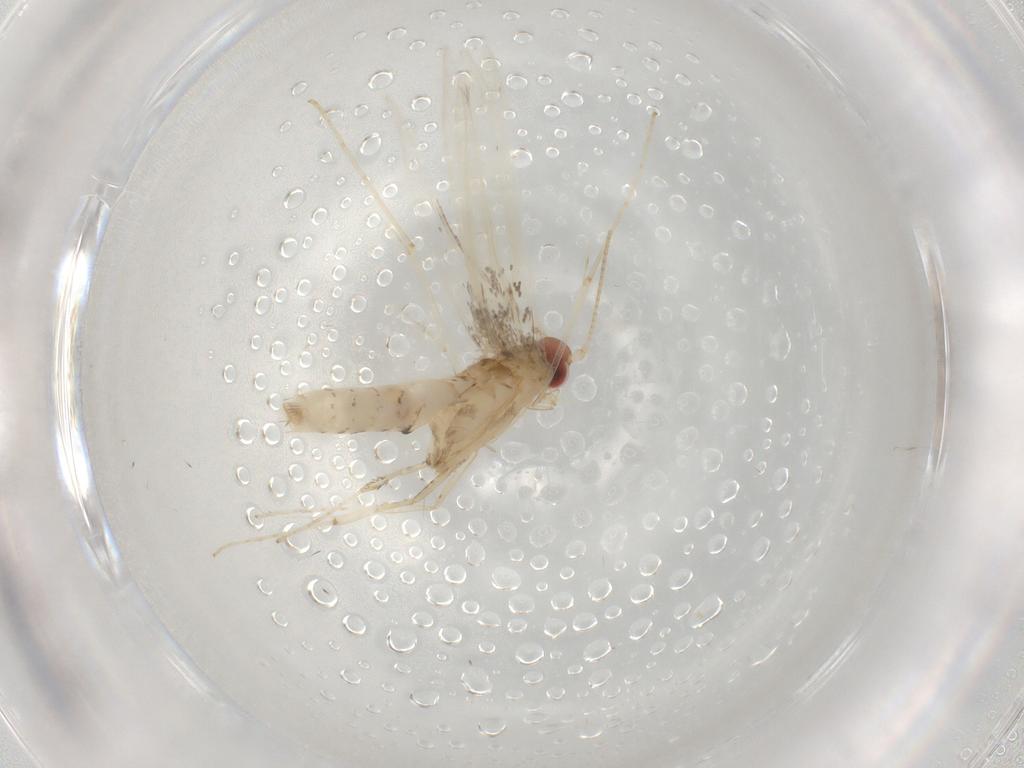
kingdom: Animalia
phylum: Arthropoda
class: Insecta
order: Lepidoptera
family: Gracillariidae
